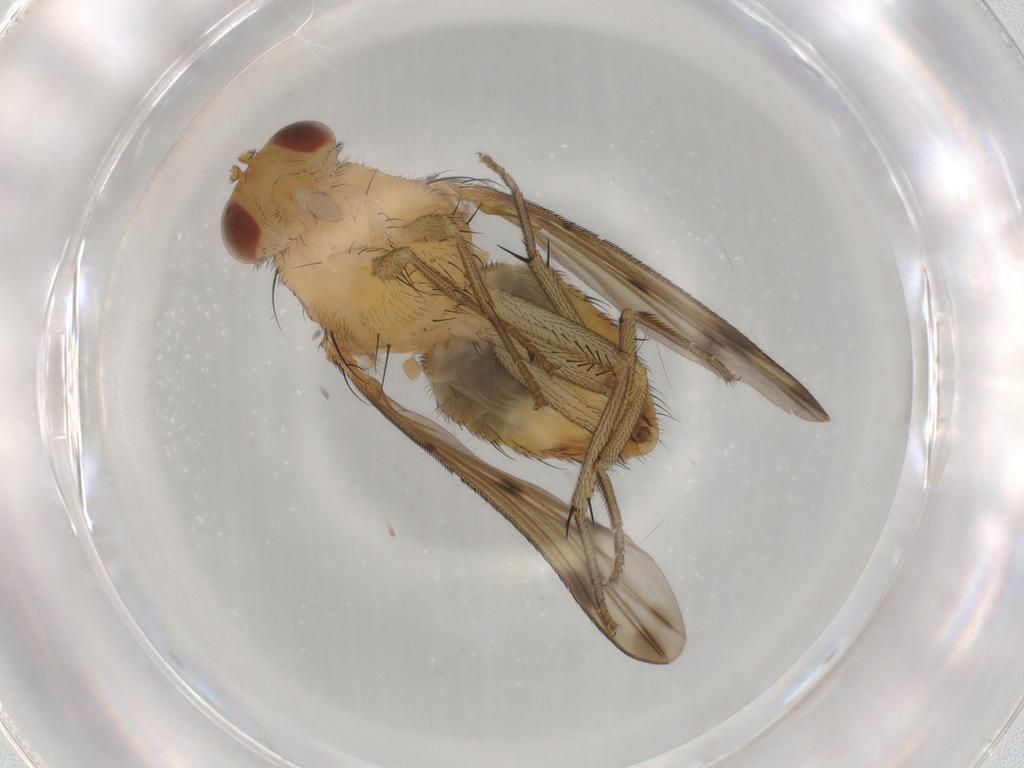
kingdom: Animalia
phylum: Arthropoda
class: Insecta
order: Diptera
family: Lauxaniidae
